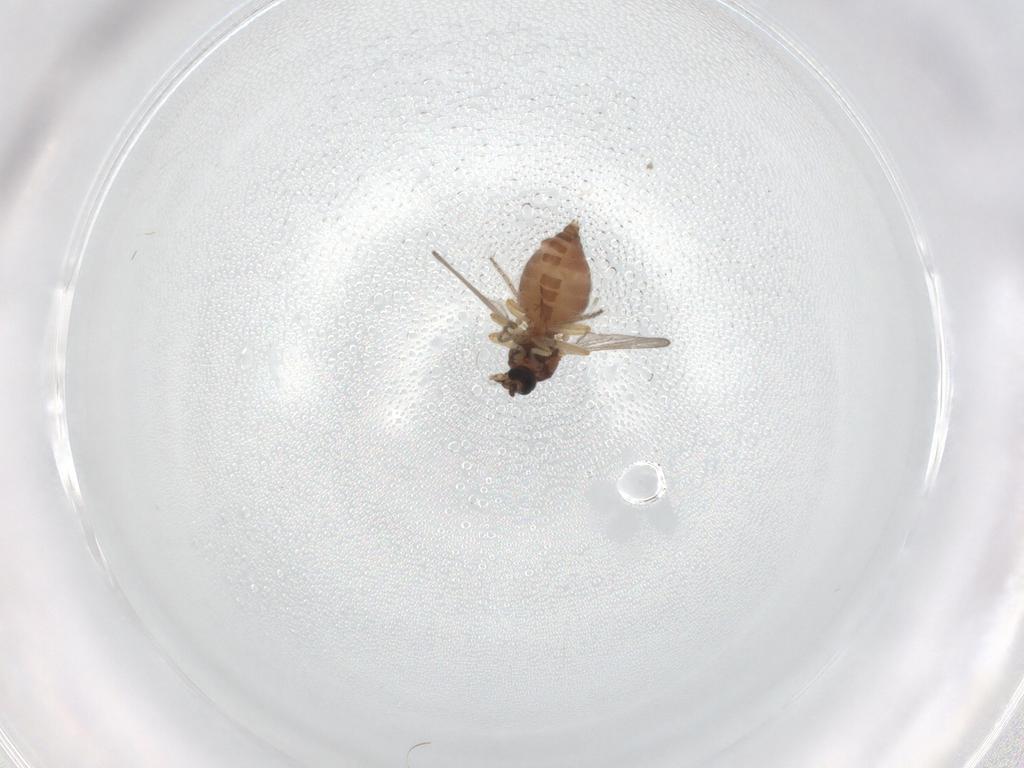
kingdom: Animalia
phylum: Arthropoda
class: Insecta
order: Diptera
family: Ceratopogonidae
